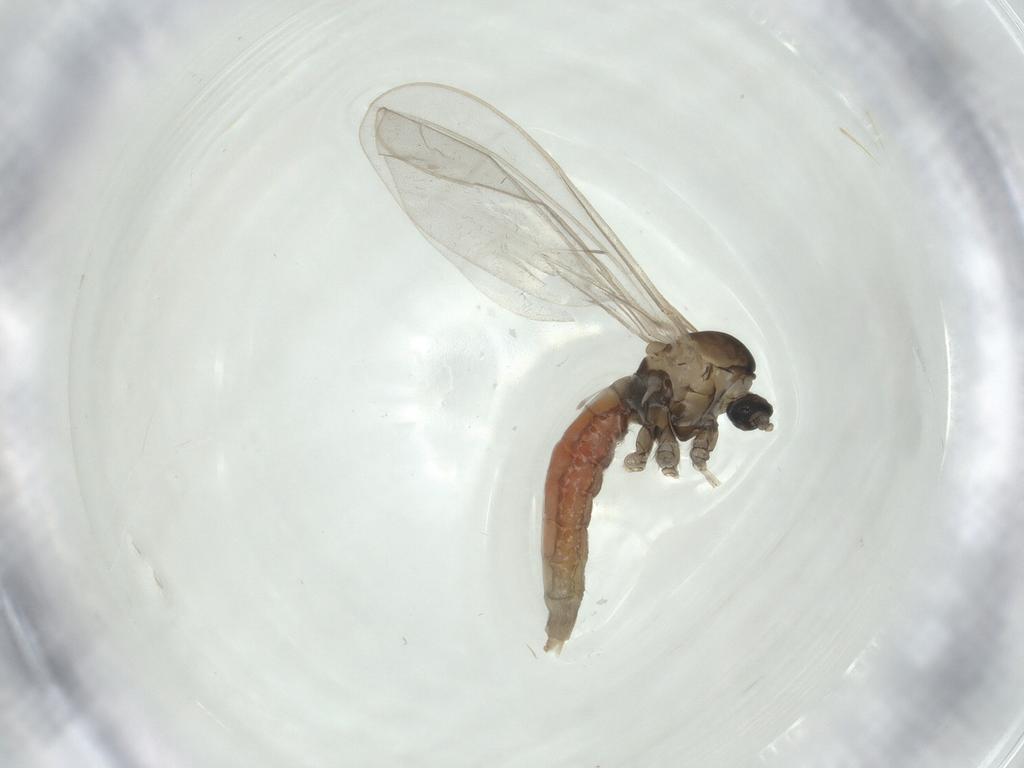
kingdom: Animalia
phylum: Arthropoda
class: Insecta
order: Diptera
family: Cecidomyiidae
